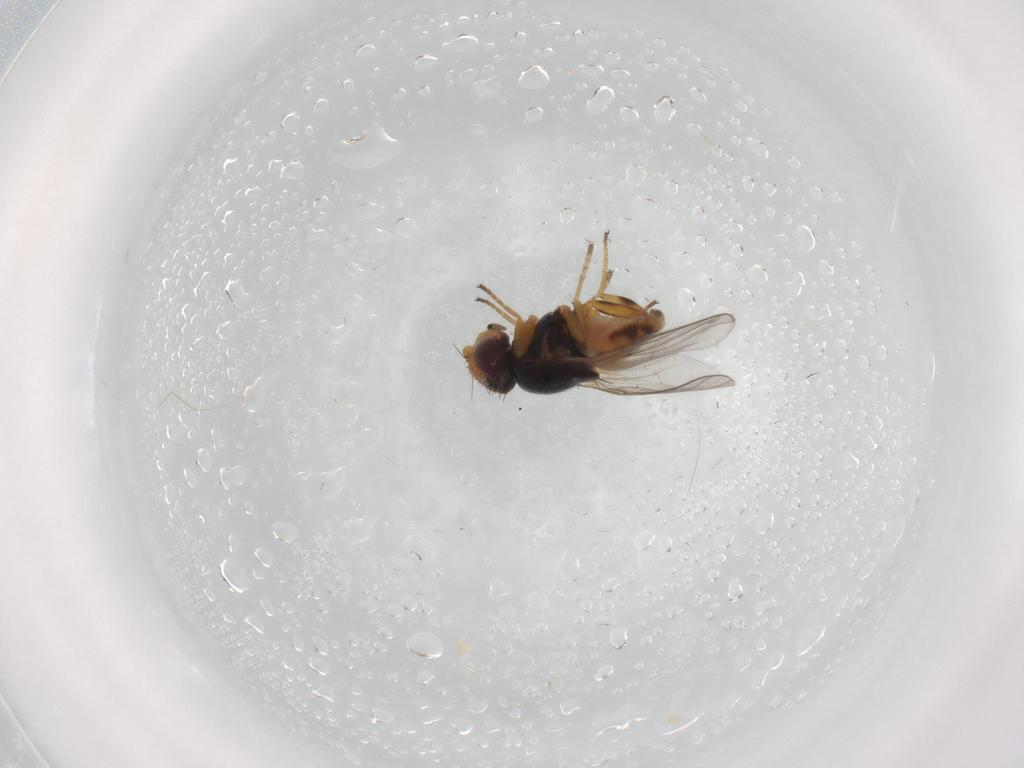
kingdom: Animalia
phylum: Arthropoda
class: Insecta
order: Diptera
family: Chloropidae
